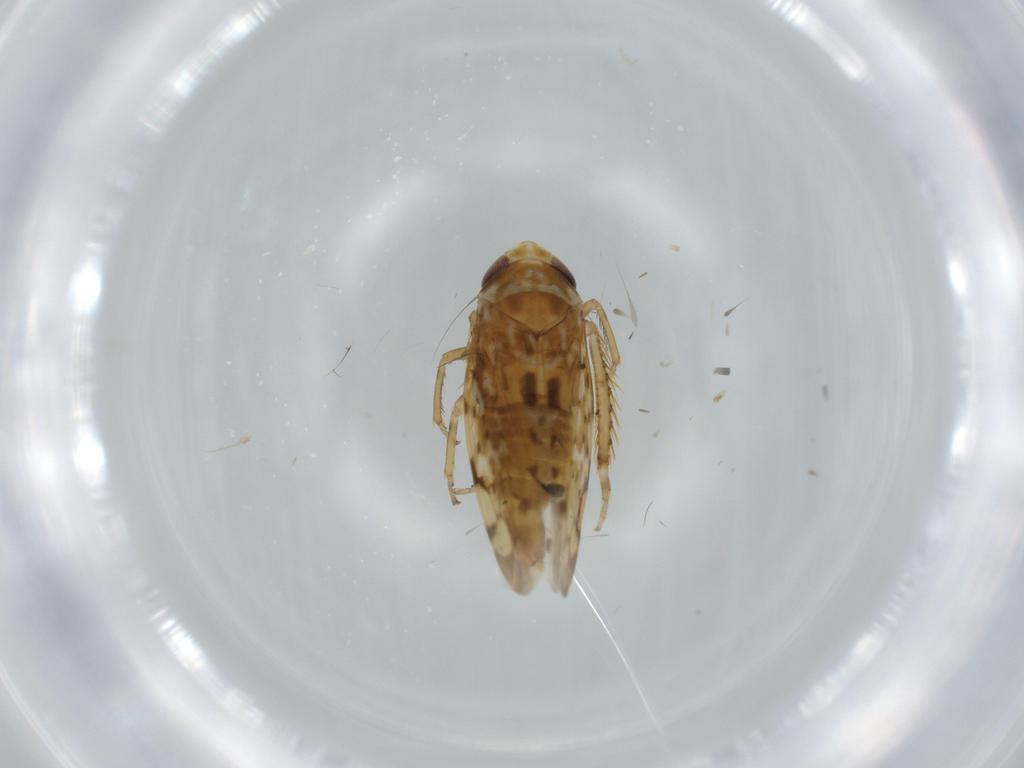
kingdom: Animalia
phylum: Arthropoda
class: Insecta
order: Hemiptera
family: Cicadellidae
